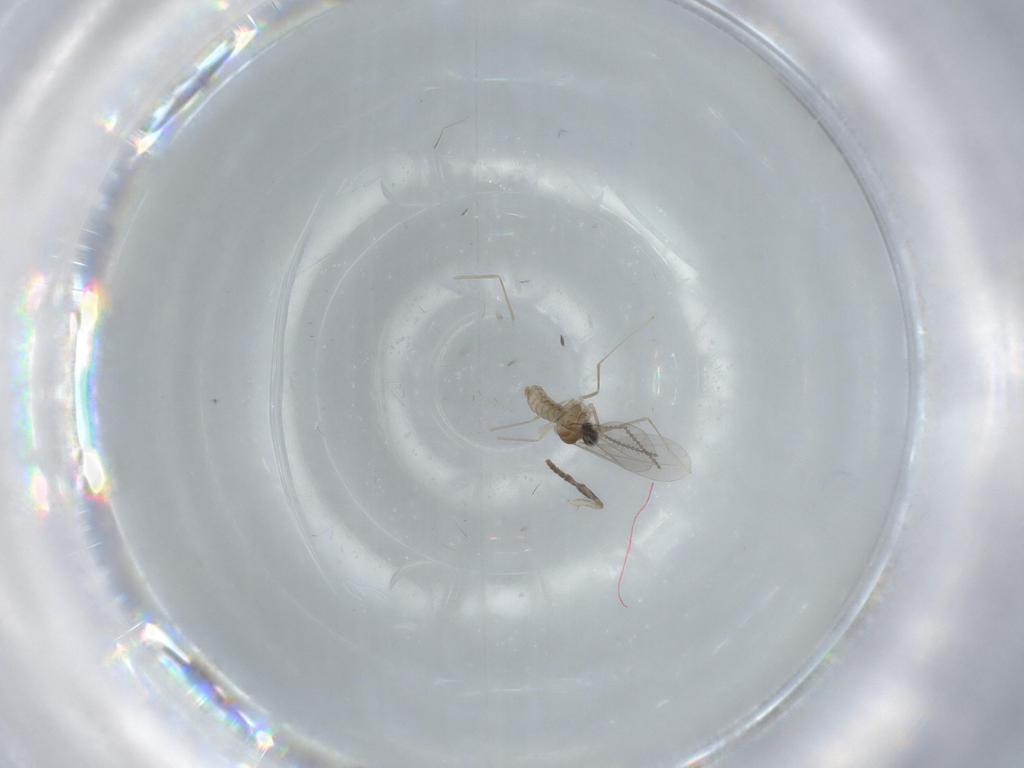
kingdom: Animalia
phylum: Arthropoda
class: Insecta
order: Diptera
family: Cecidomyiidae
